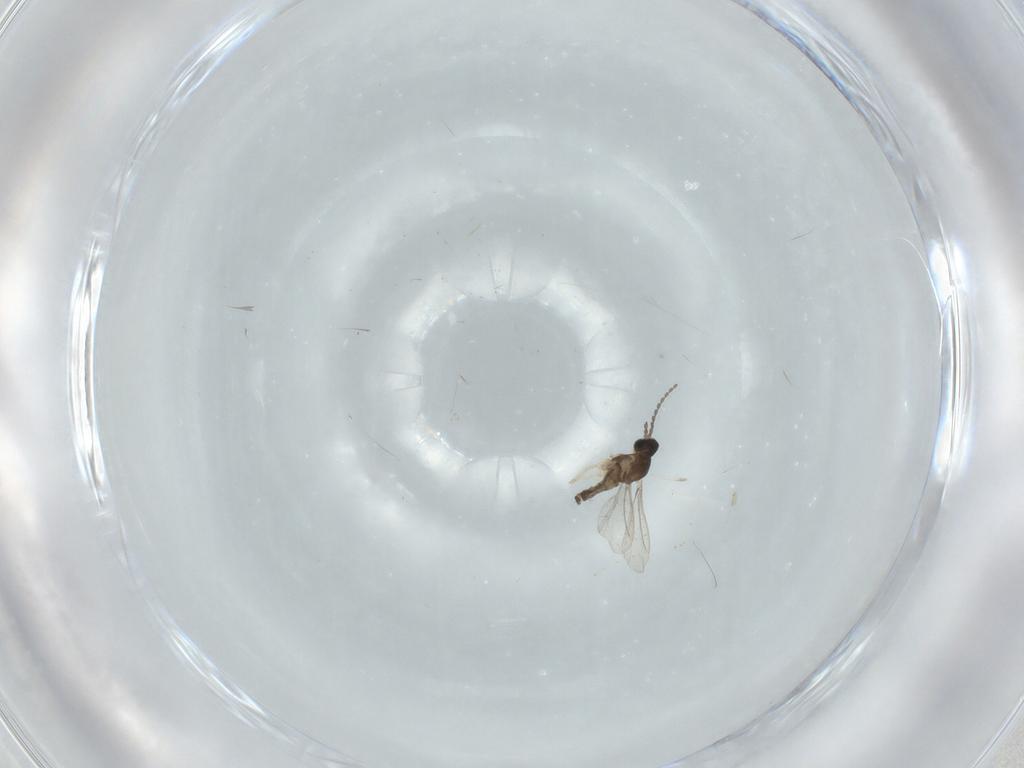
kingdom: Animalia
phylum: Arthropoda
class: Insecta
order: Diptera
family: Cecidomyiidae
